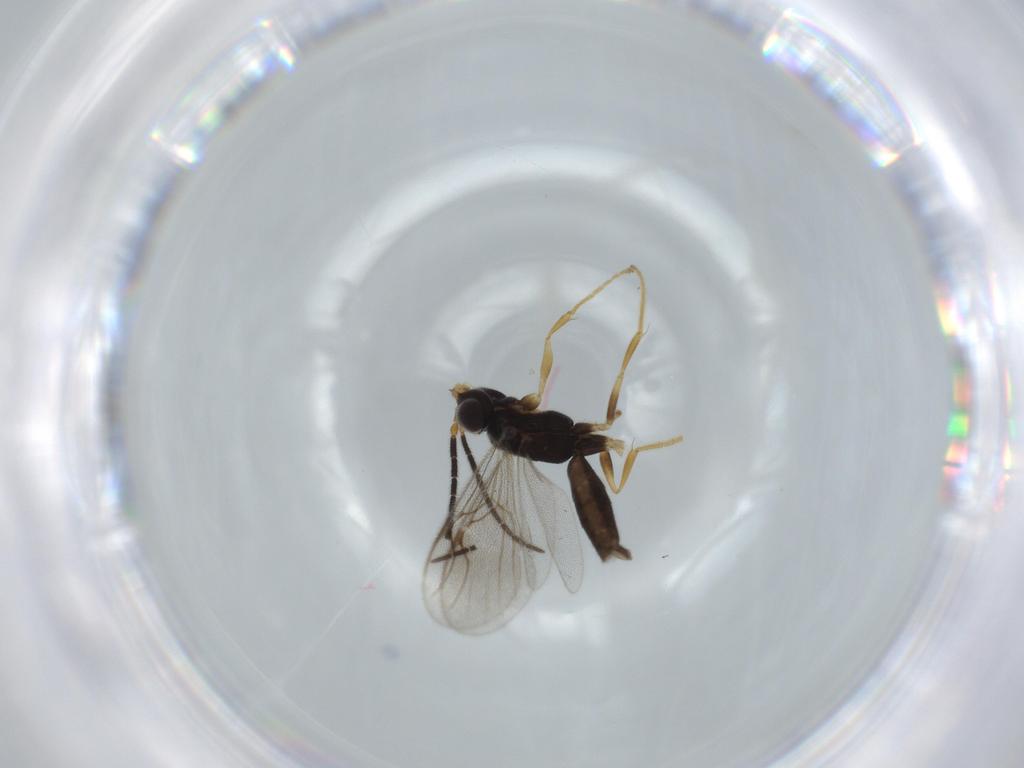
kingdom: Animalia
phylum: Arthropoda
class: Insecta
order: Hymenoptera
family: Dryinidae
